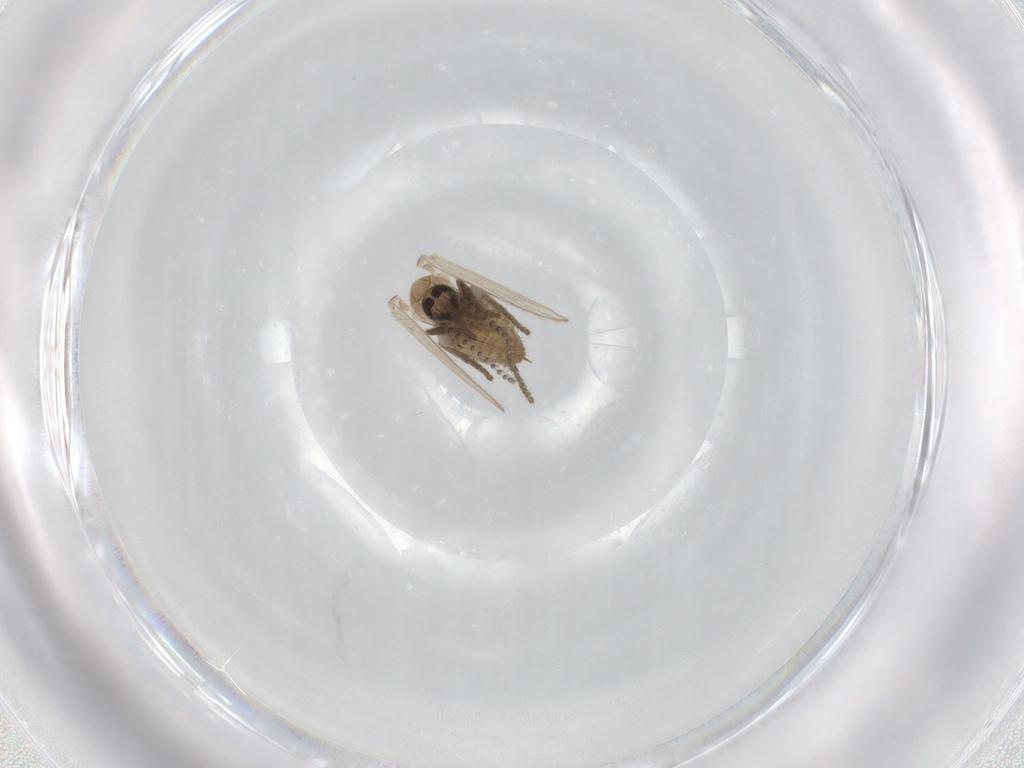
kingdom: Animalia
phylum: Arthropoda
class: Insecta
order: Diptera
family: Psychodidae
